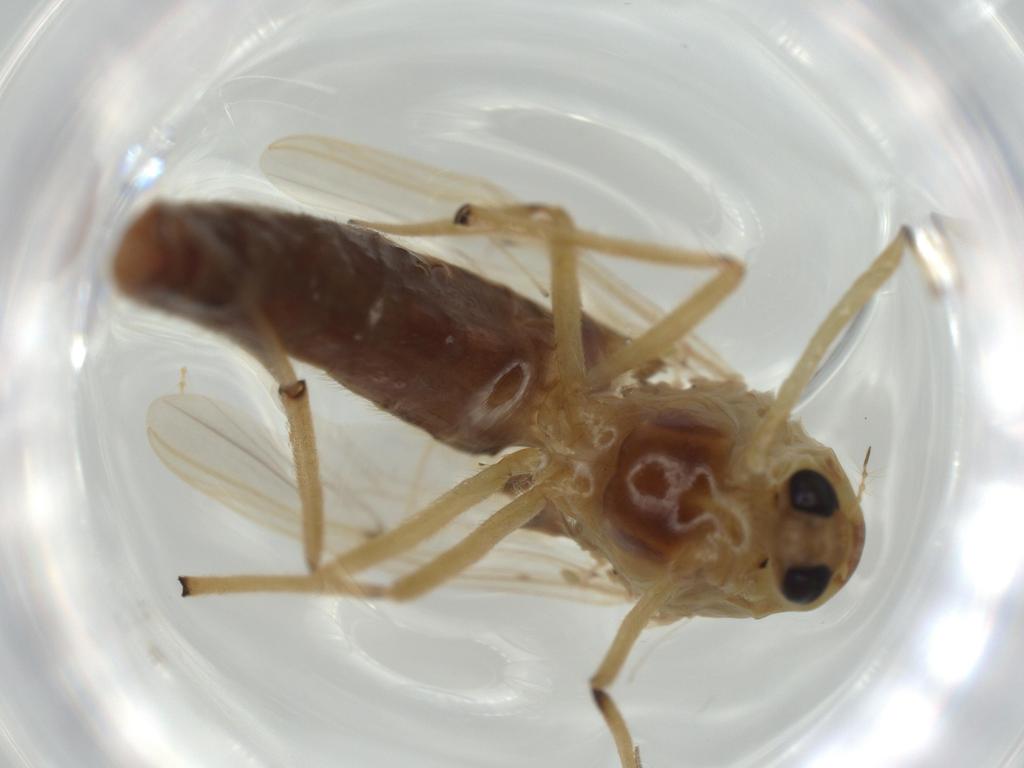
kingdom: Animalia
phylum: Arthropoda
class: Insecta
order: Diptera
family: Chironomidae
